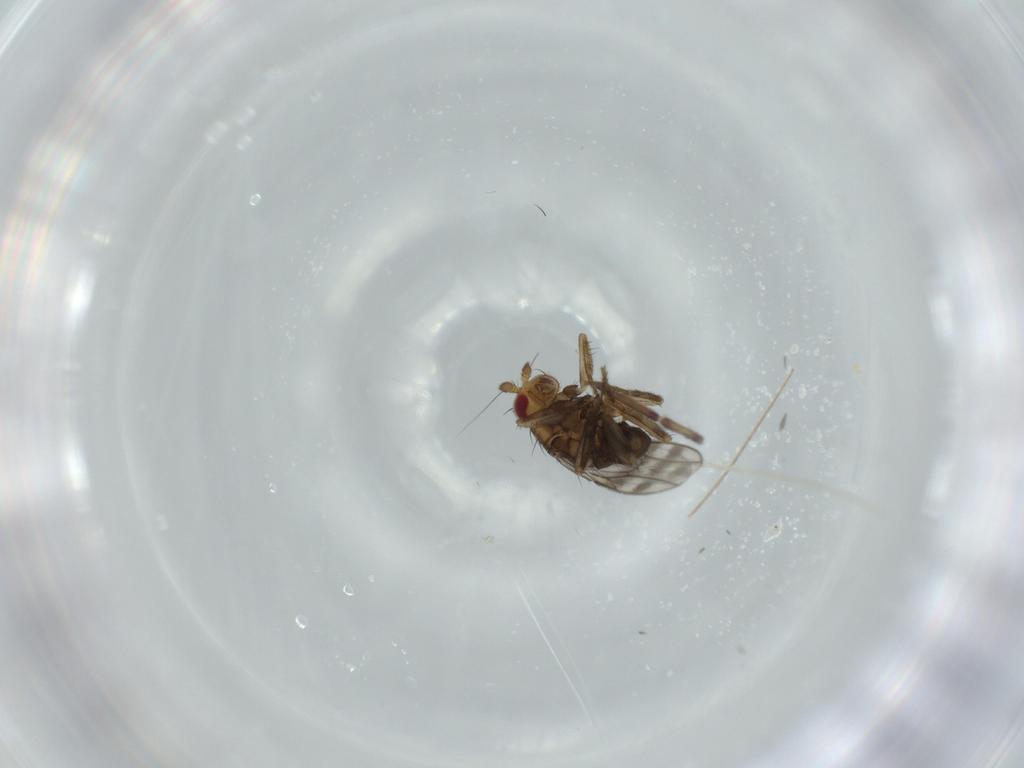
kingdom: Animalia
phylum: Arthropoda
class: Insecta
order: Diptera
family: Sphaeroceridae
